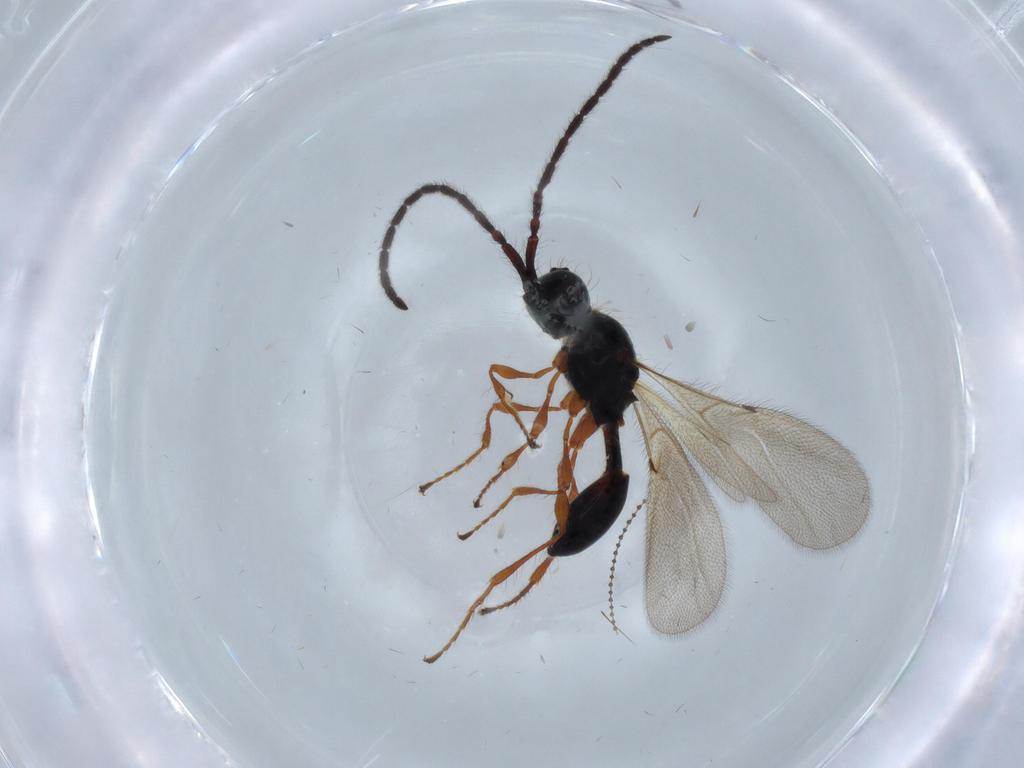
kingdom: Animalia
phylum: Arthropoda
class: Insecta
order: Hymenoptera
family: Diapriidae
